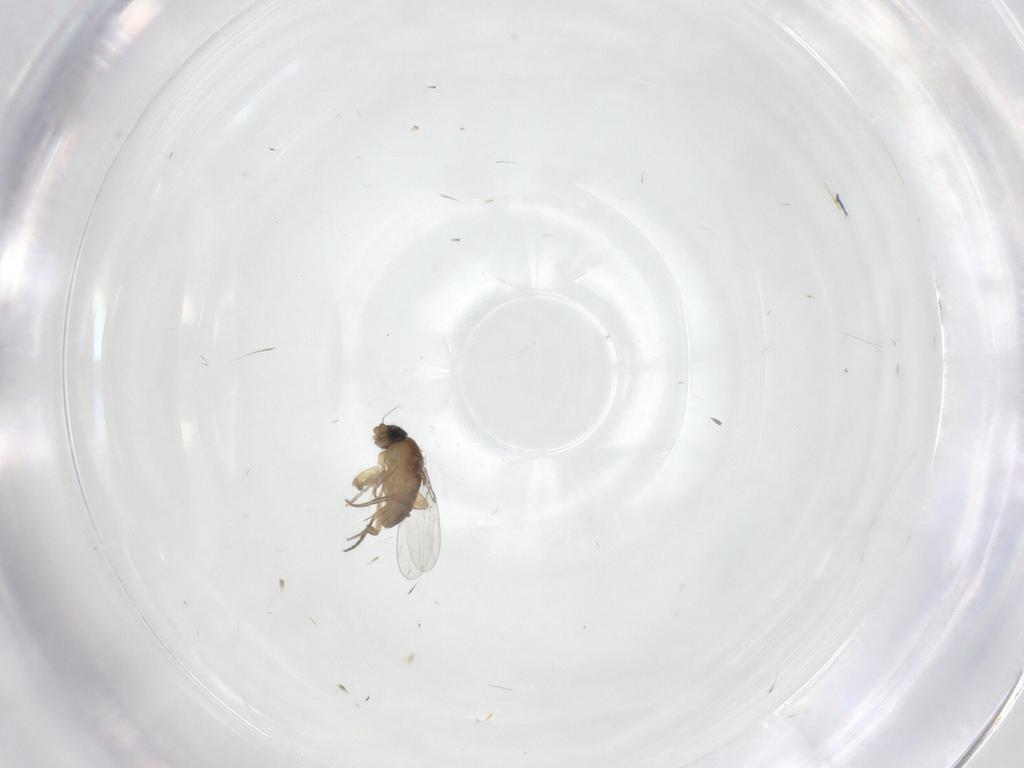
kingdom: Animalia
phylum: Arthropoda
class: Insecta
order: Diptera
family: Cecidomyiidae
